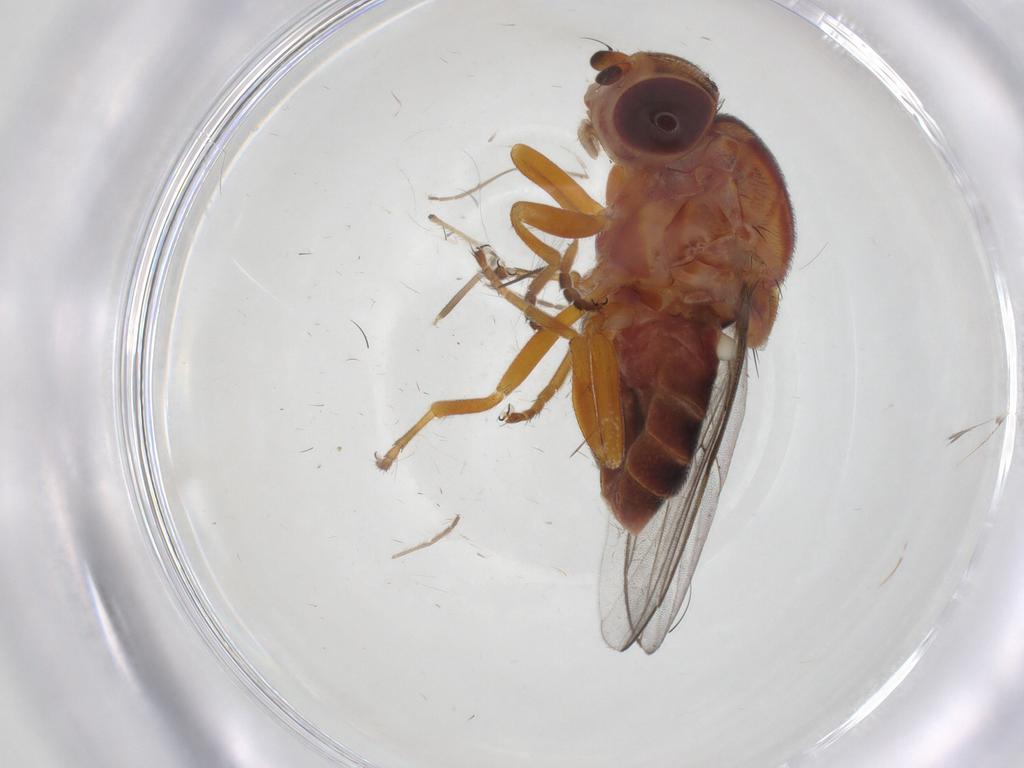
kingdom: Animalia
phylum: Arthropoda
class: Insecta
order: Diptera
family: Chloropidae
